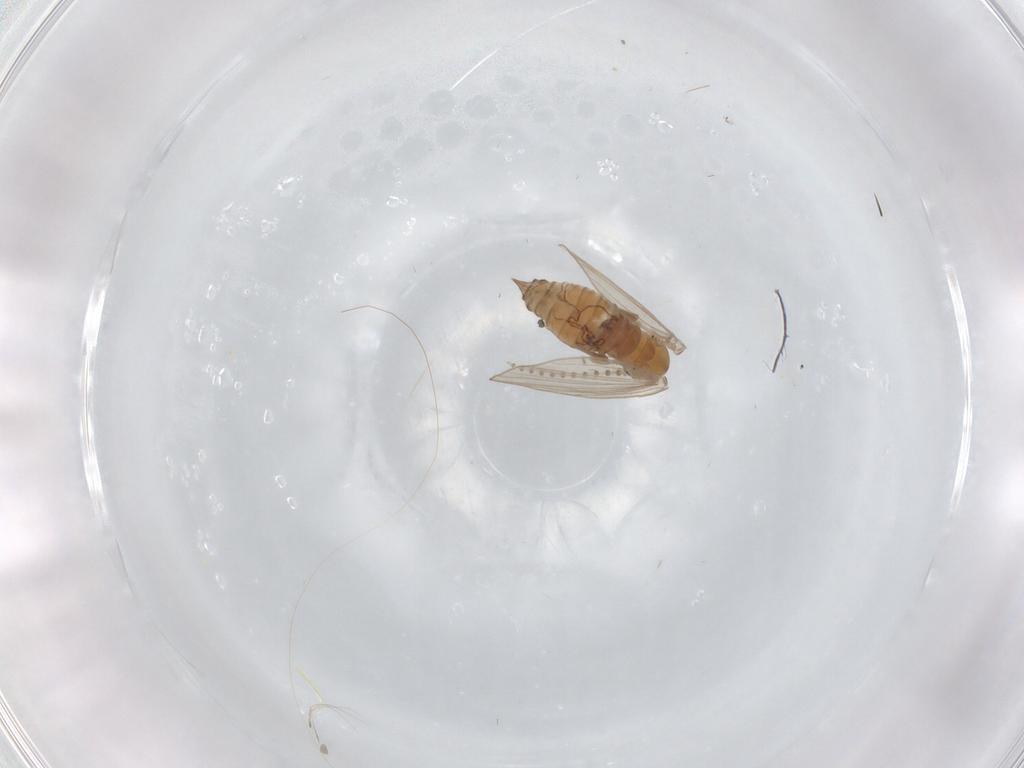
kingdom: Animalia
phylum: Arthropoda
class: Insecta
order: Diptera
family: Psychodidae
